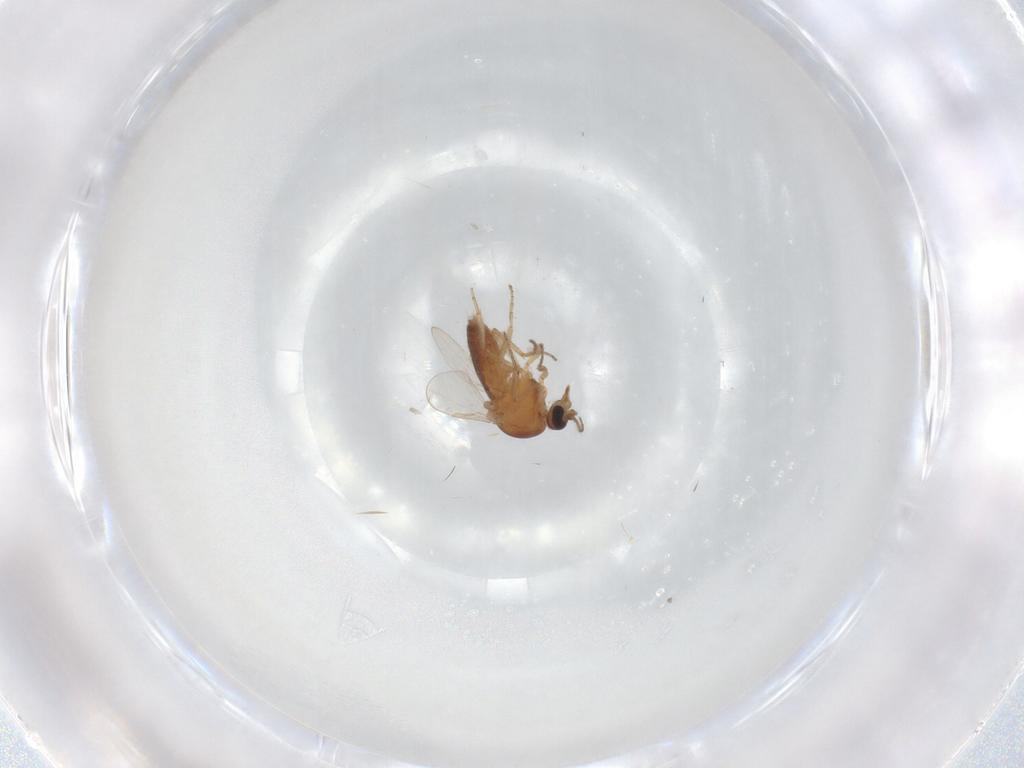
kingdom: Animalia
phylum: Arthropoda
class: Insecta
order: Diptera
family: Ceratopogonidae
